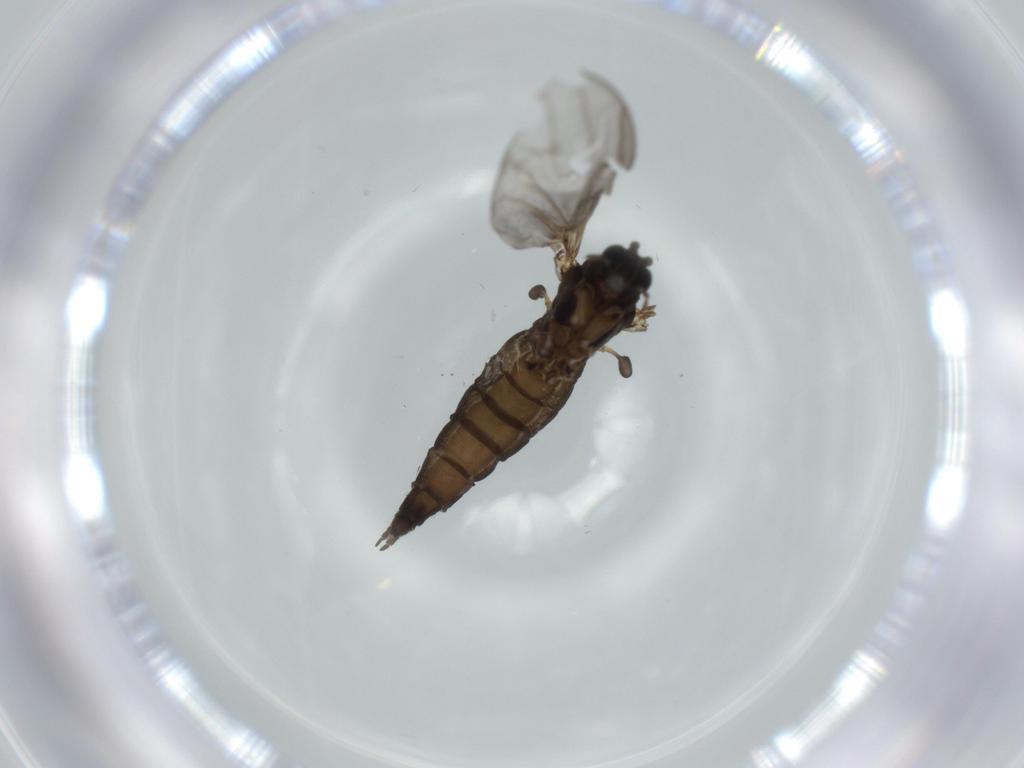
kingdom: Animalia
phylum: Arthropoda
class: Insecta
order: Diptera
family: Sciaridae
